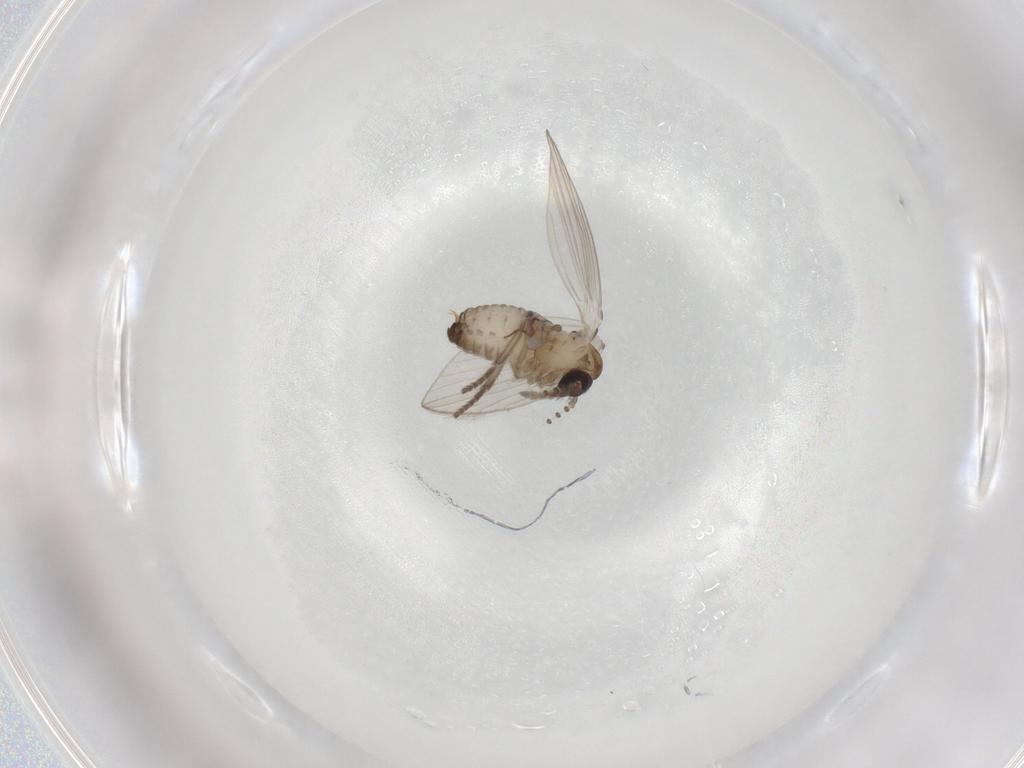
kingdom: Animalia
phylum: Arthropoda
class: Insecta
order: Diptera
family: Psychodidae
